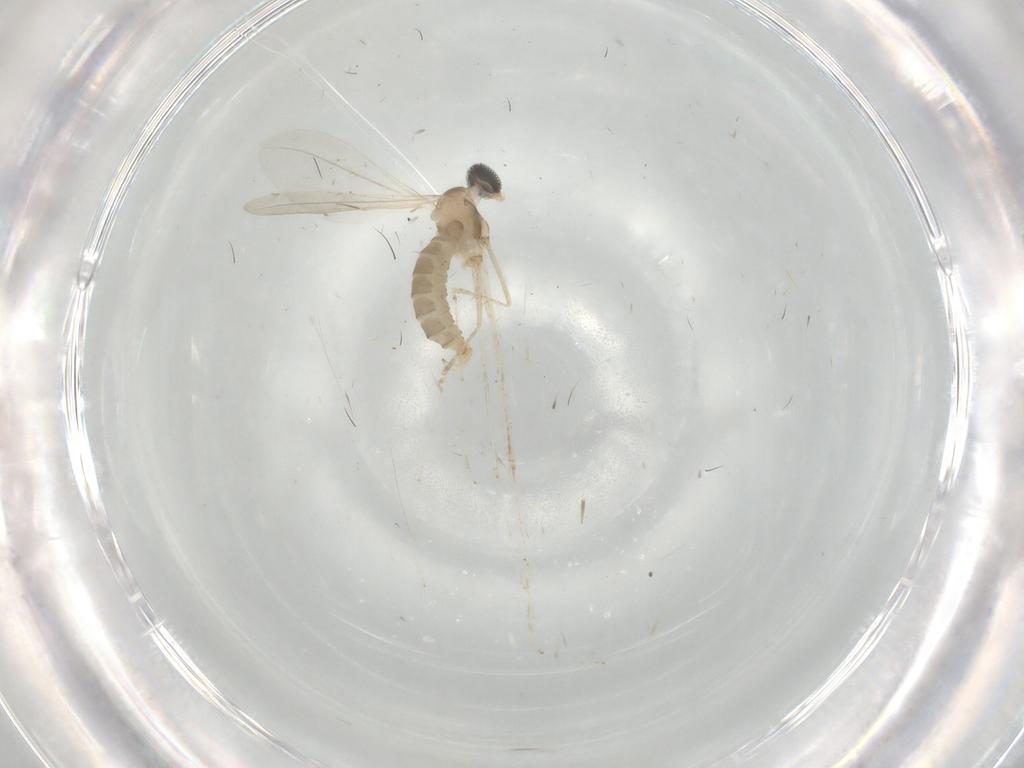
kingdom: Animalia
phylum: Arthropoda
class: Insecta
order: Diptera
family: Cecidomyiidae
